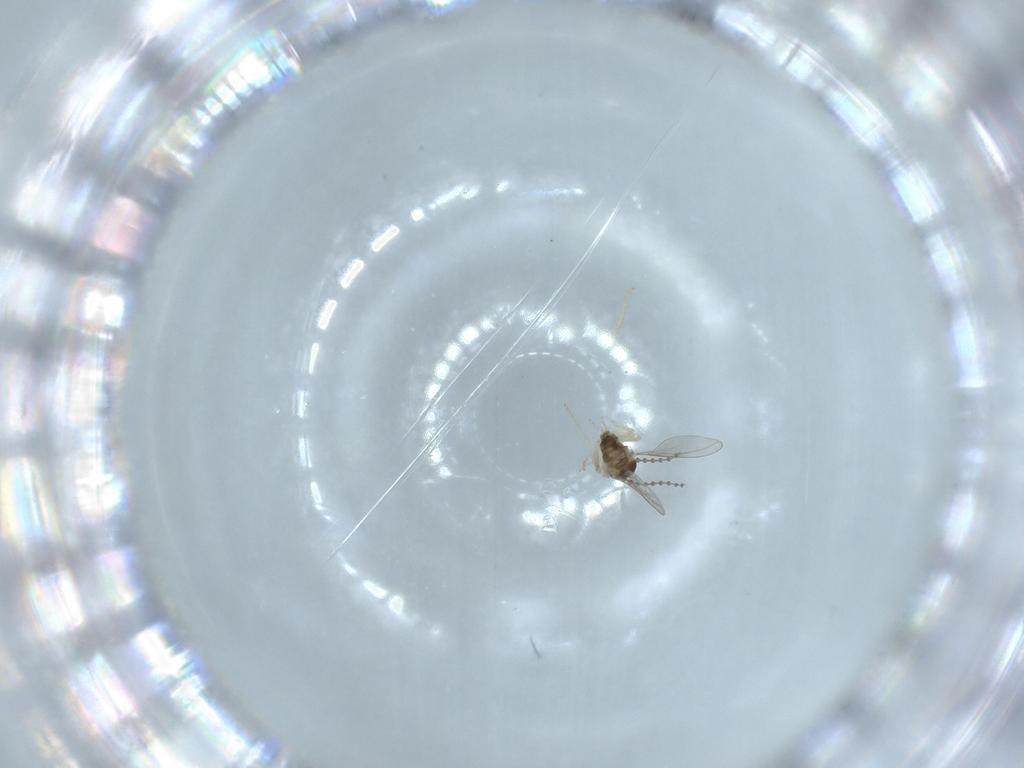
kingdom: Animalia
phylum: Arthropoda
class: Insecta
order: Diptera
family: Cecidomyiidae
